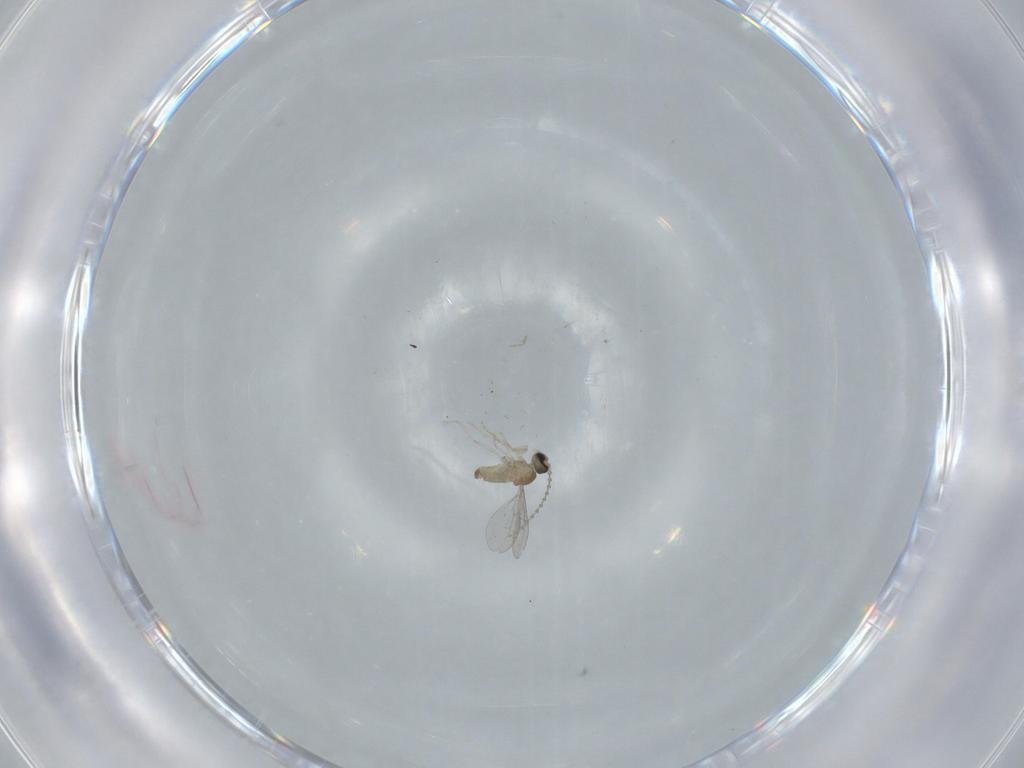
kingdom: Animalia
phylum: Arthropoda
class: Insecta
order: Diptera
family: Cecidomyiidae
